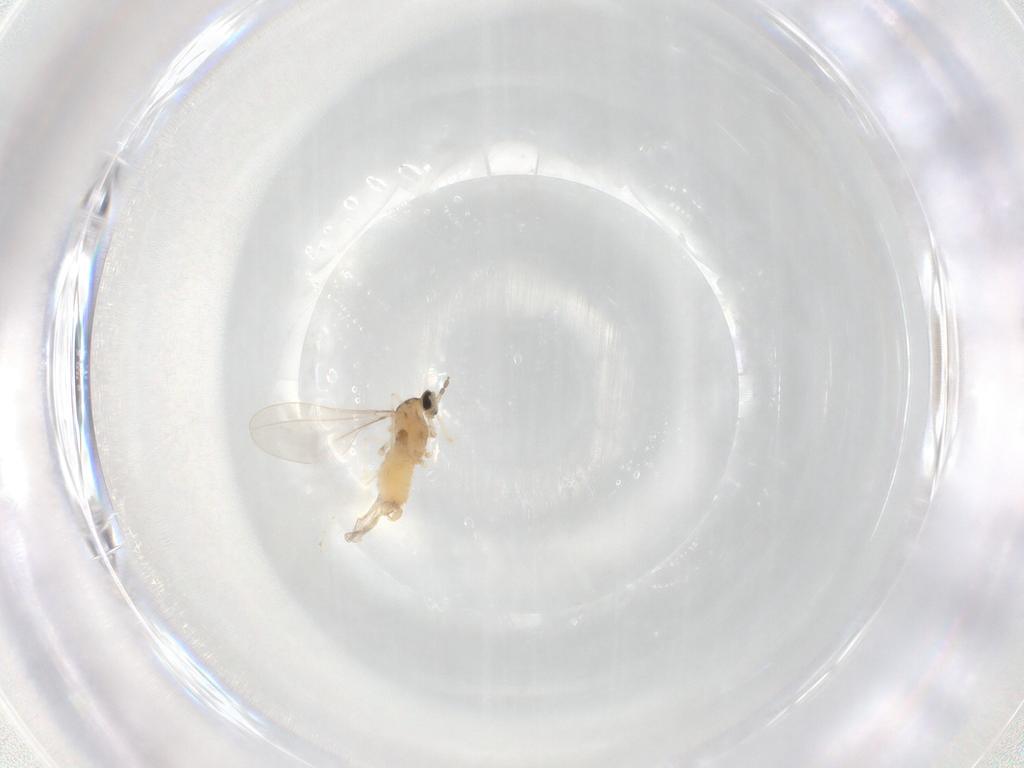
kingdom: Animalia
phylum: Arthropoda
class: Insecta
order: Diptera
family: Cecidomyiidae
